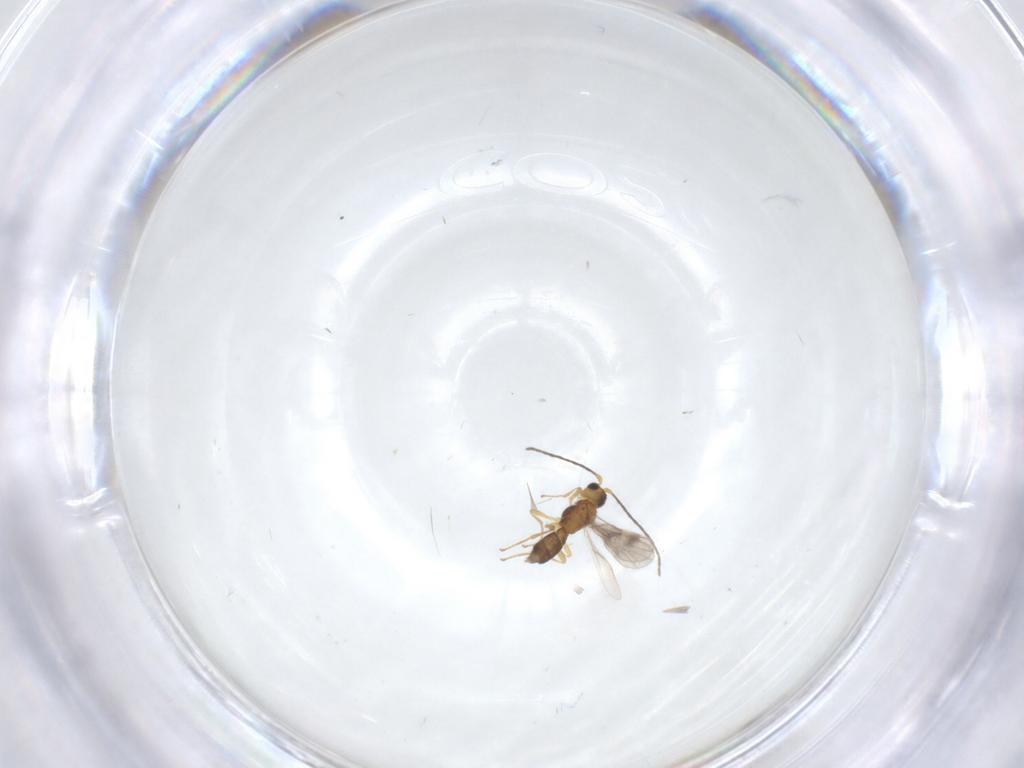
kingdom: Animalia
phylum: Arthropoda
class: Insecta
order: Hymenoptera
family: Braconidae
